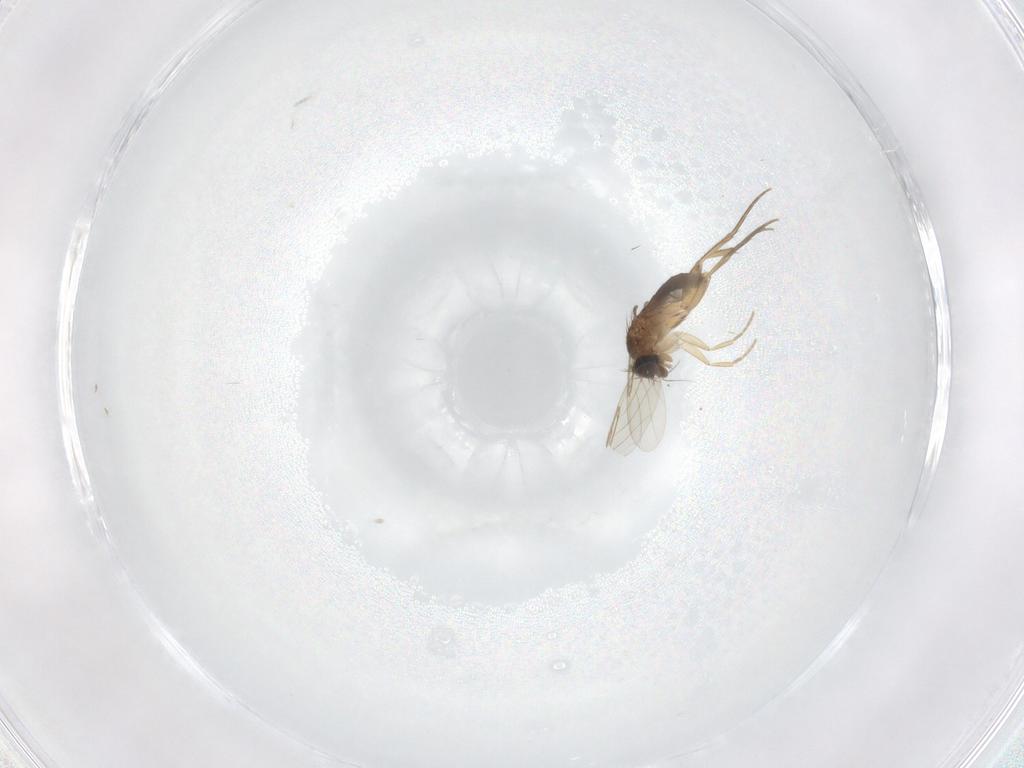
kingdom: Animalia
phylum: Arthropoda
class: Insecta
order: Diptera
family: Phoridae
